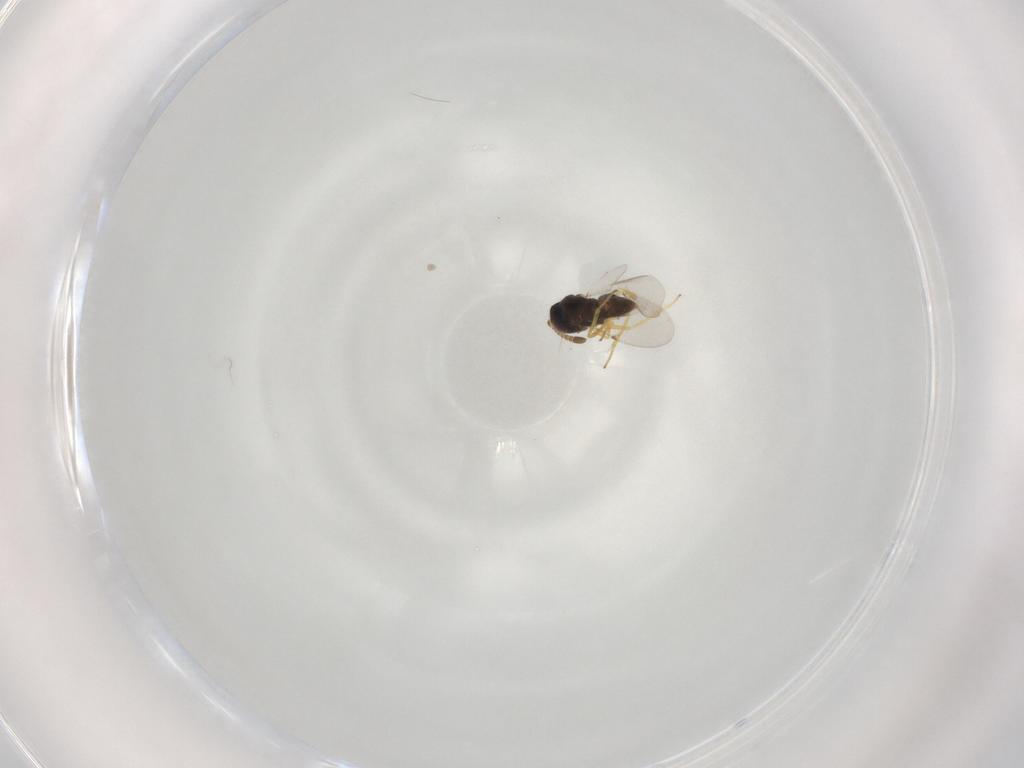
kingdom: Animalia
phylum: Arthropoda
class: Insecta
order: Hymenoptera
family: Encyrtidae
